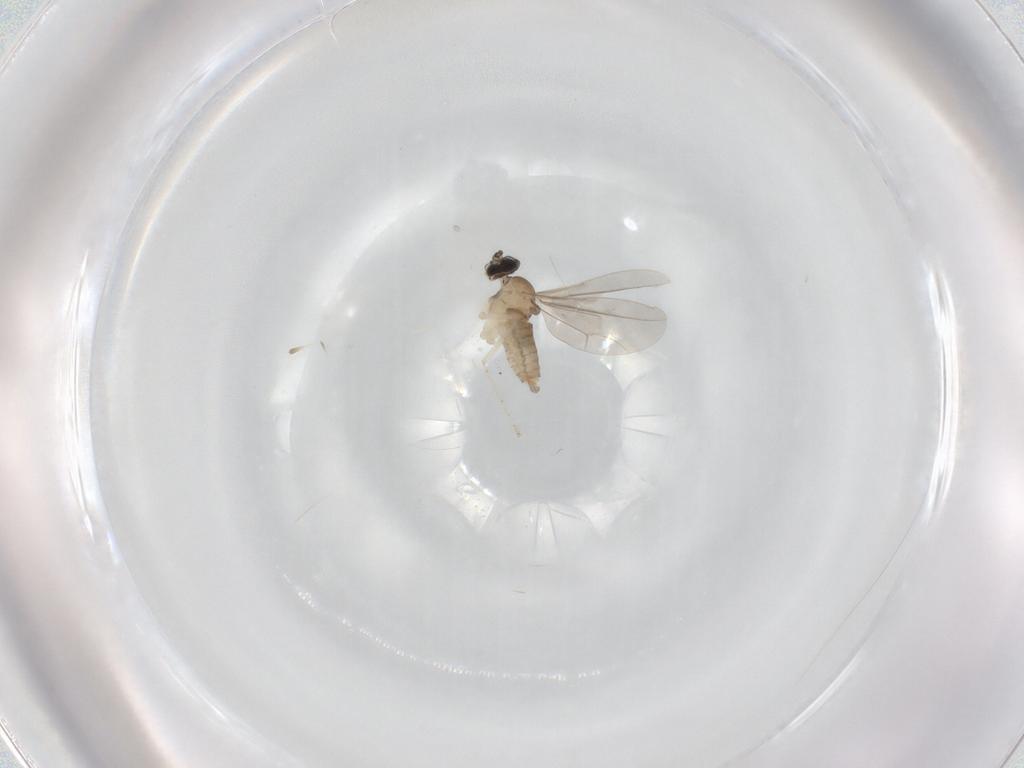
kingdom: Animalia
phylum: Arthropoda
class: Insecta
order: Diptera
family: Cecidomyiidae
